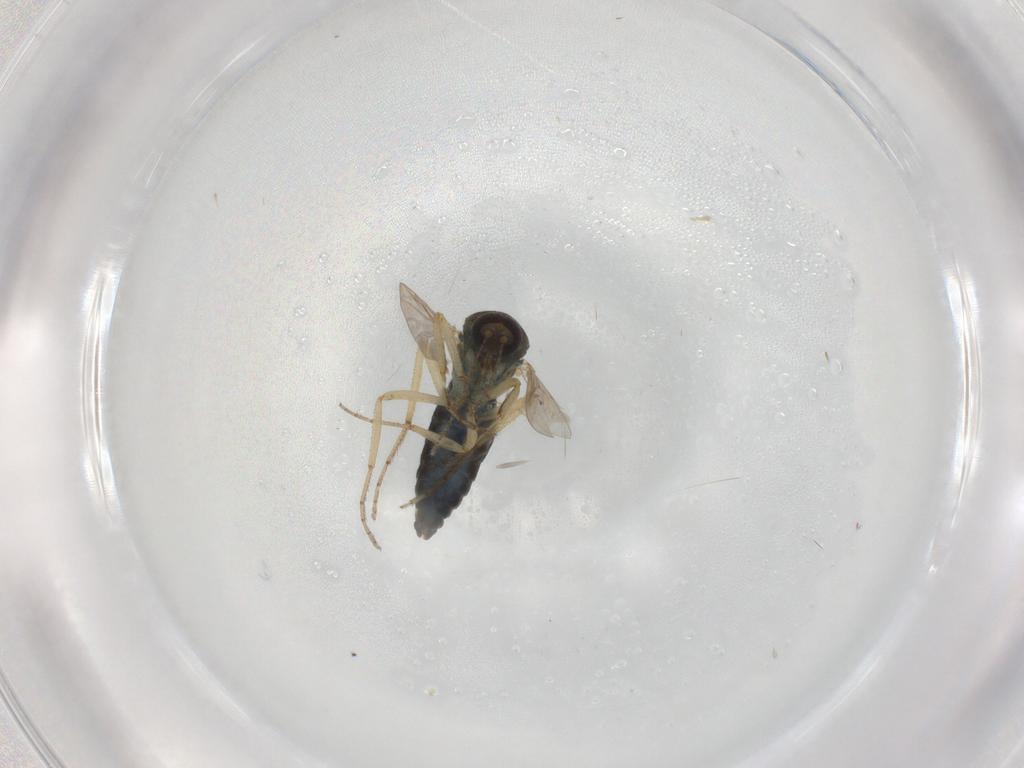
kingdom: Animalia
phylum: Arthropoda
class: Insecta
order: Diptera
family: Ceratopogonidae
